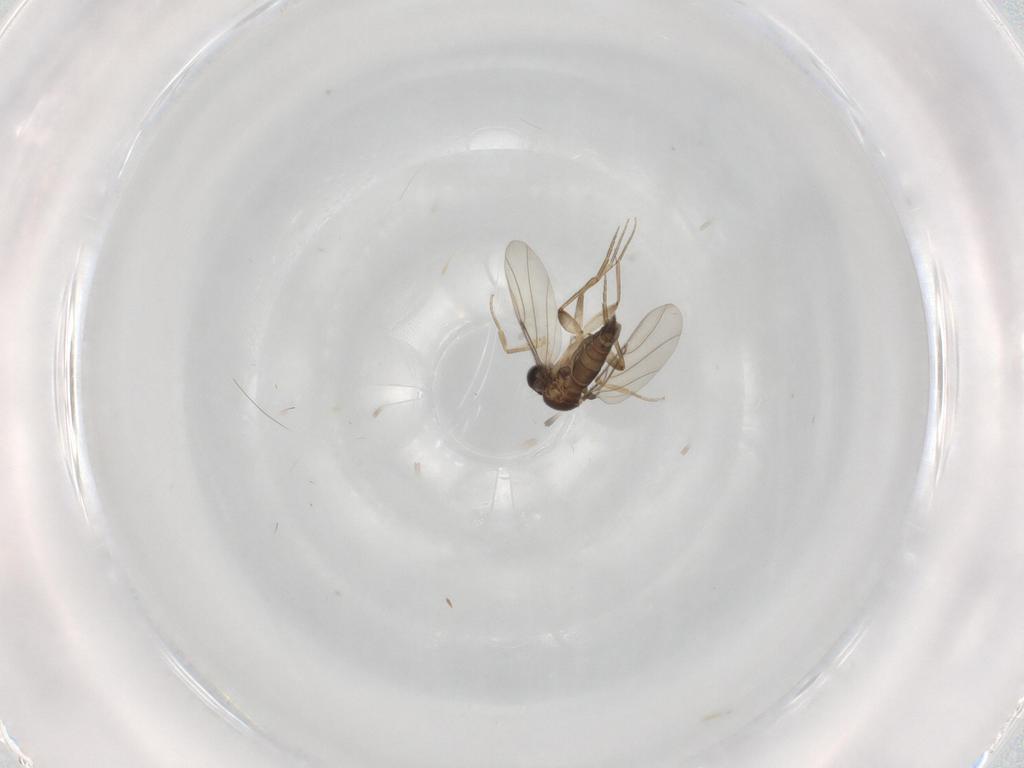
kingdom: Animalia
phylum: Arthropoda
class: Insecta
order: Diptera
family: Phoridae
